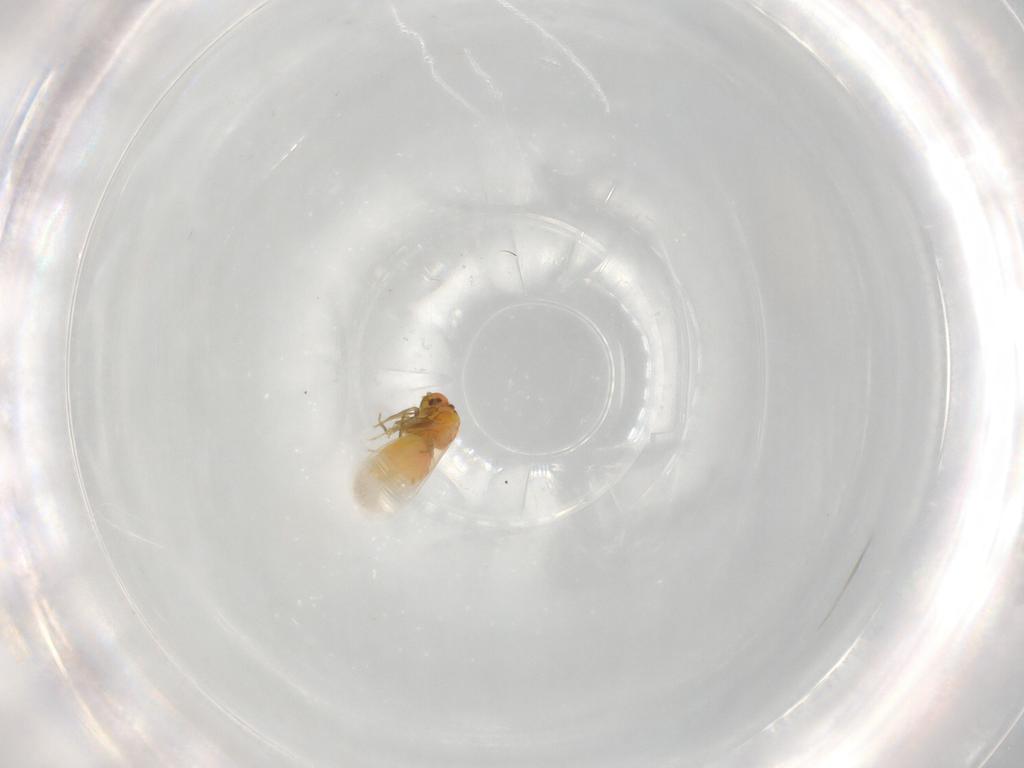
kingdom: Animalia
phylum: Arthropoda
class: Insecta
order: Hemiptera
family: Aleyrodidae
